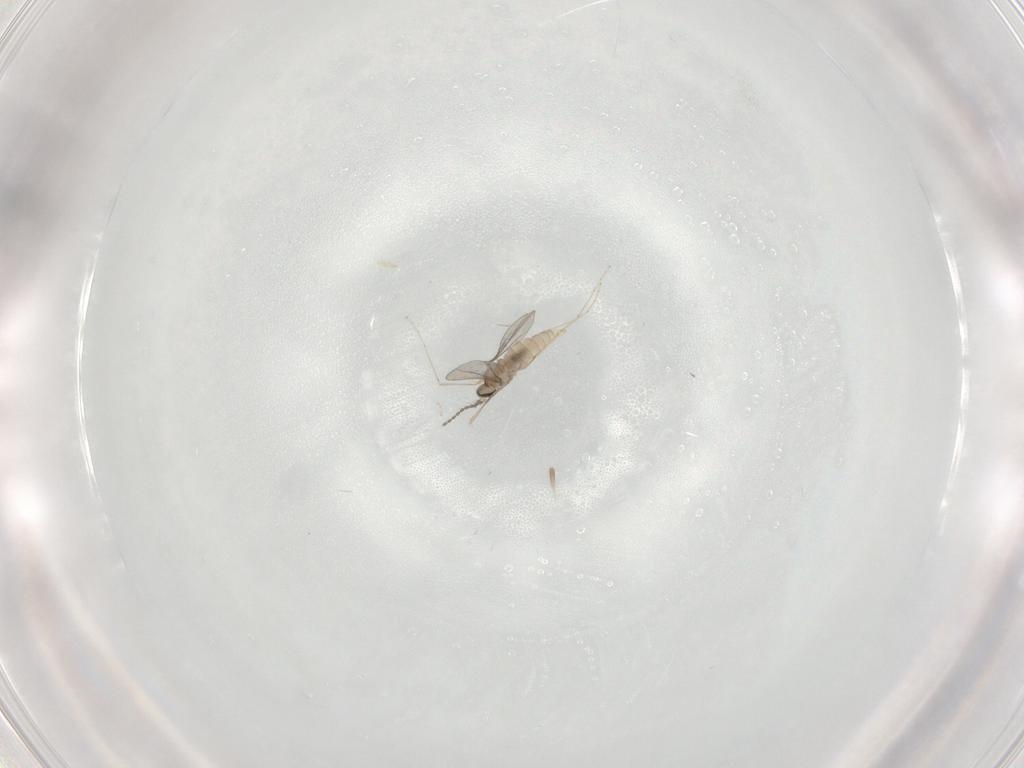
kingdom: Animalia
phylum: Arthropoda
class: Insecta
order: Diptera
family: Cecidomyiidae
